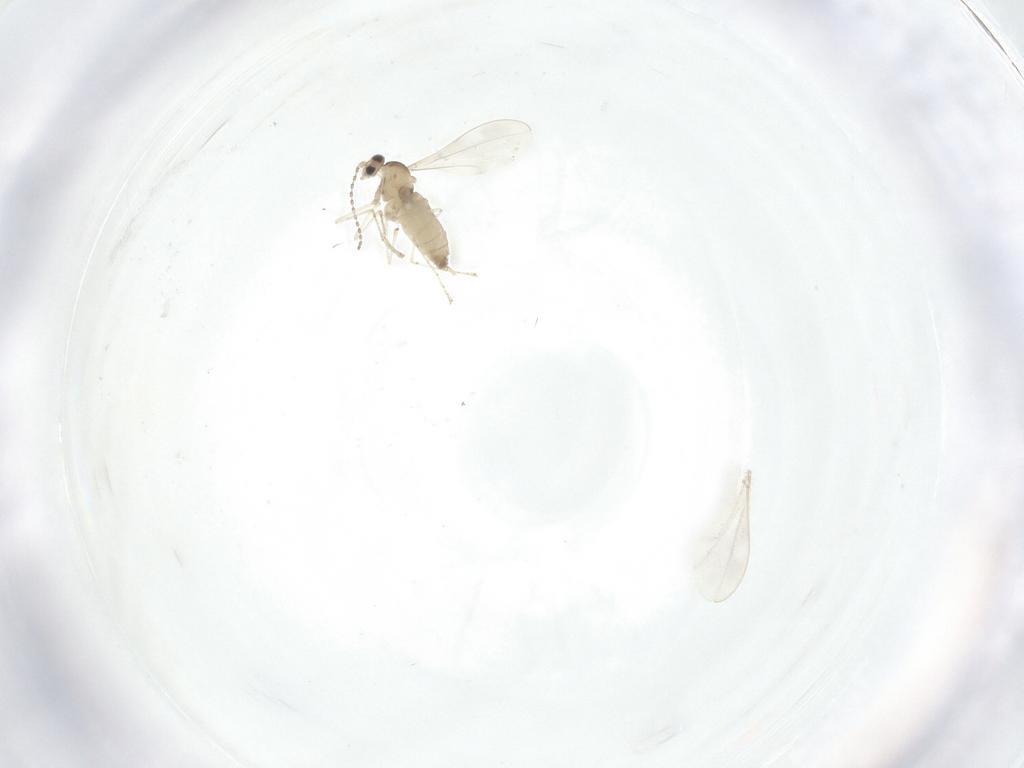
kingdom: Animalia
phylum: Arthropoda
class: Insecta
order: Diptera
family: Cecidomyiidae
